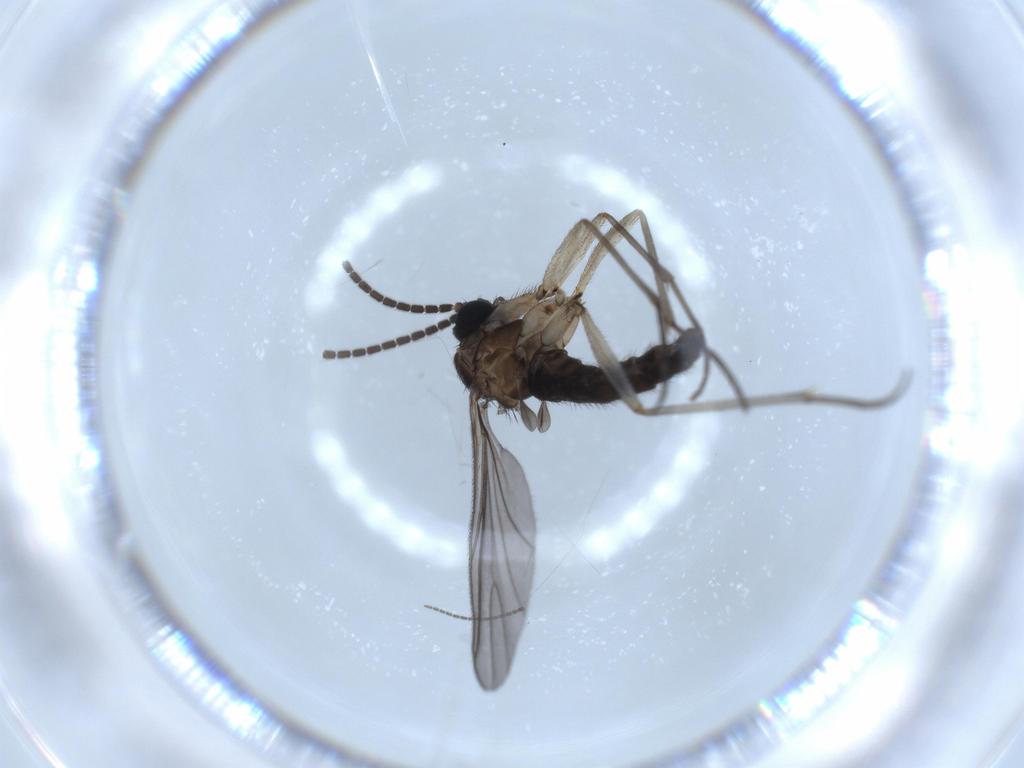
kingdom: Animalia
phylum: Arthropoda
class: Insecta
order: Diptera
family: Sciaridae
